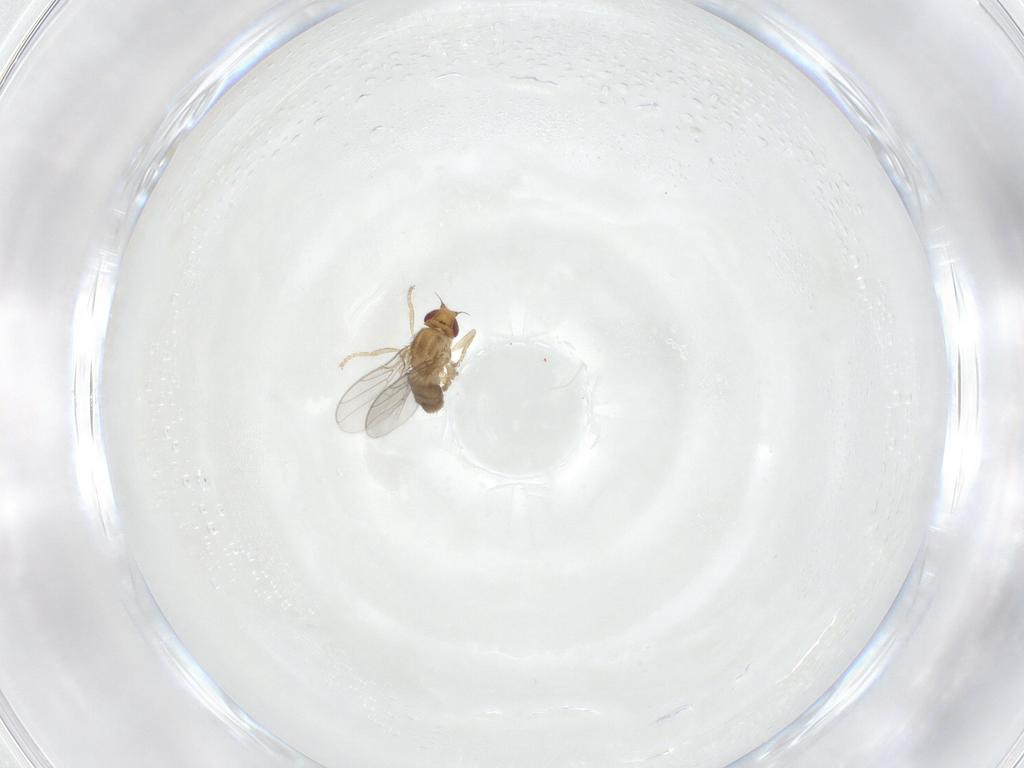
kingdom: Animalia
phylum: Arthropoda
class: Insecta
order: Diptera
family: Chloropidae
